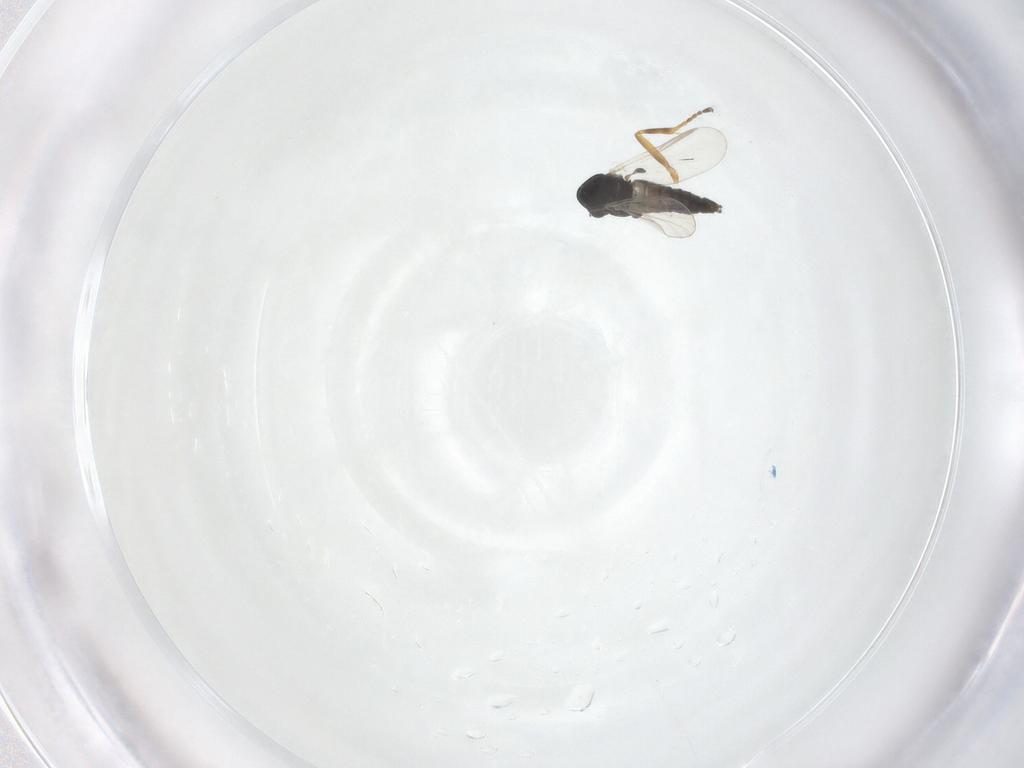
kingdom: Animalia
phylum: Arthropoda
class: Insecta
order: Diptera
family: Chironomidae
